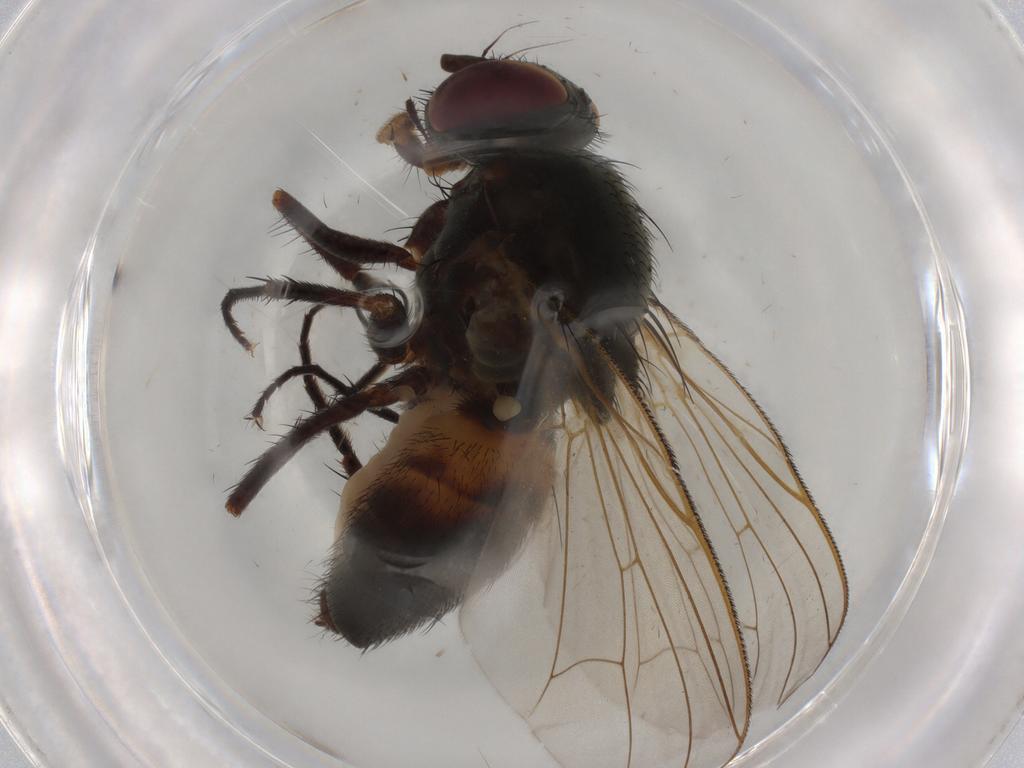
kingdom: Animalia
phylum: Arthropoda
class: Insecta
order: Diptera
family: Fannia
